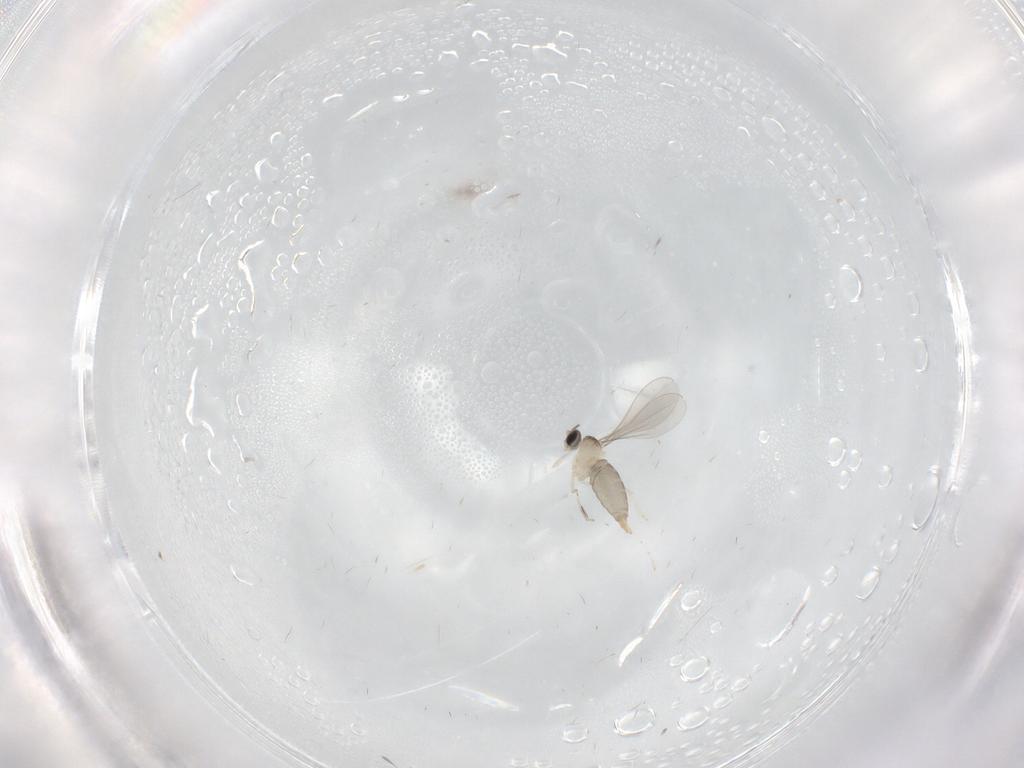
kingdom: Animalia
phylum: Arthropoda
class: Insecta
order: Diptera
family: Cecidomyiidae
